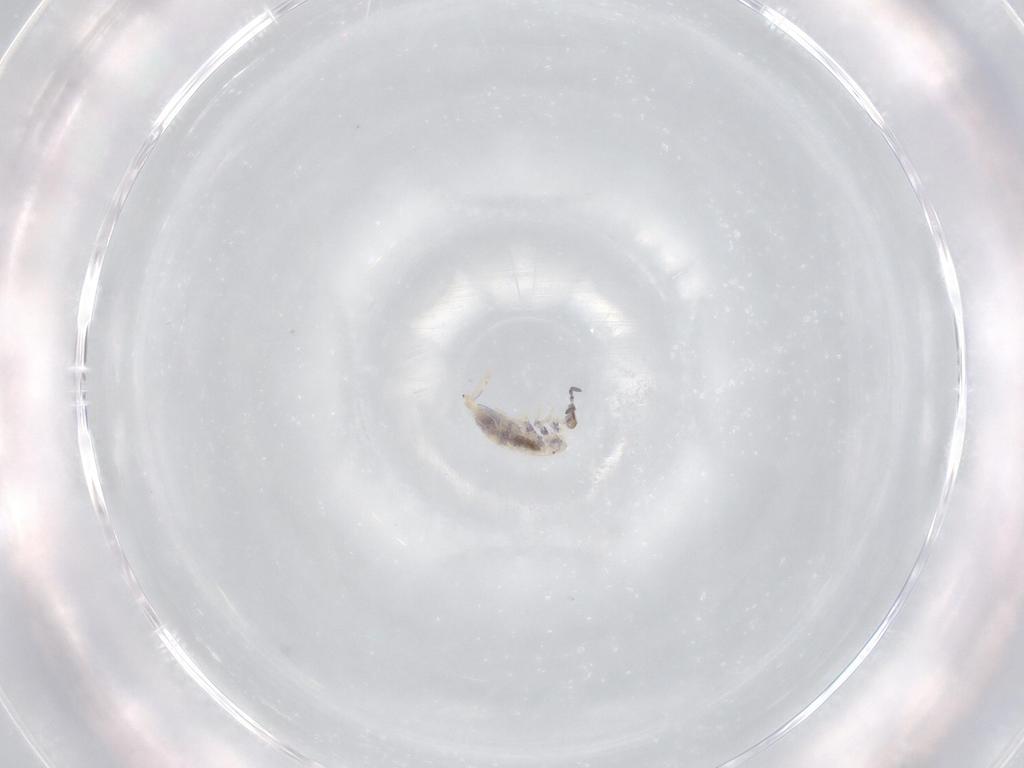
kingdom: Animalia
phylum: Arthropoda
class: Collembola
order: Entomobryomorpha
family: Entomobryidae
